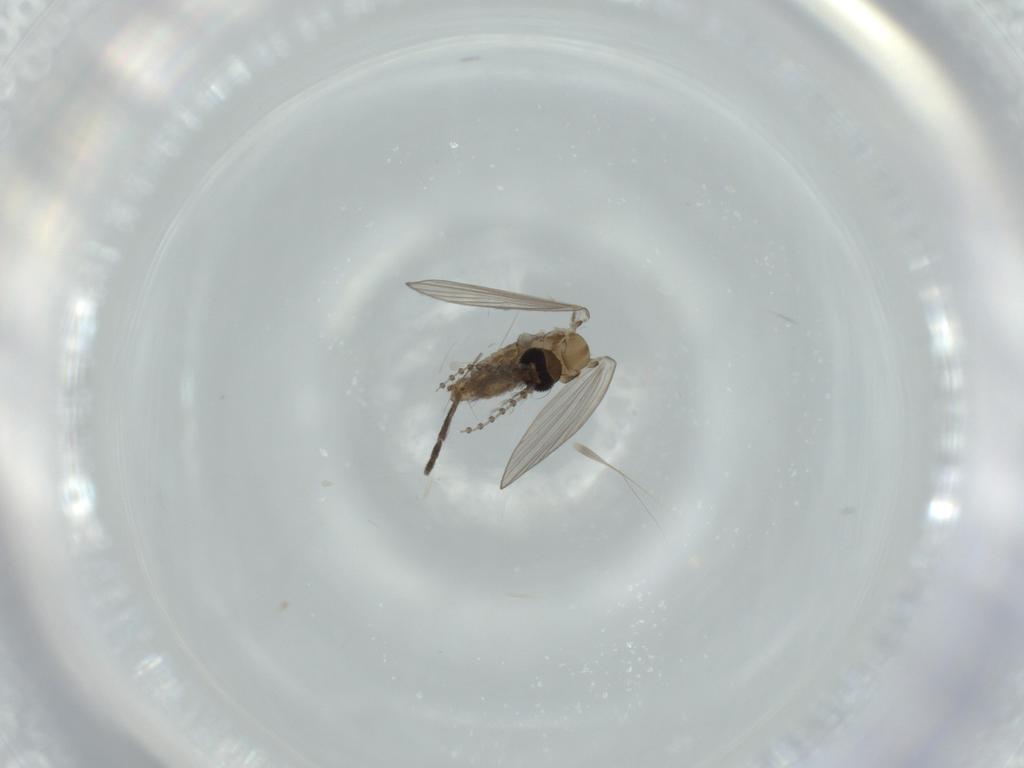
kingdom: Animalia
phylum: Arthropoda
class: Insecta
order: Diptera
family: Psychodidae
